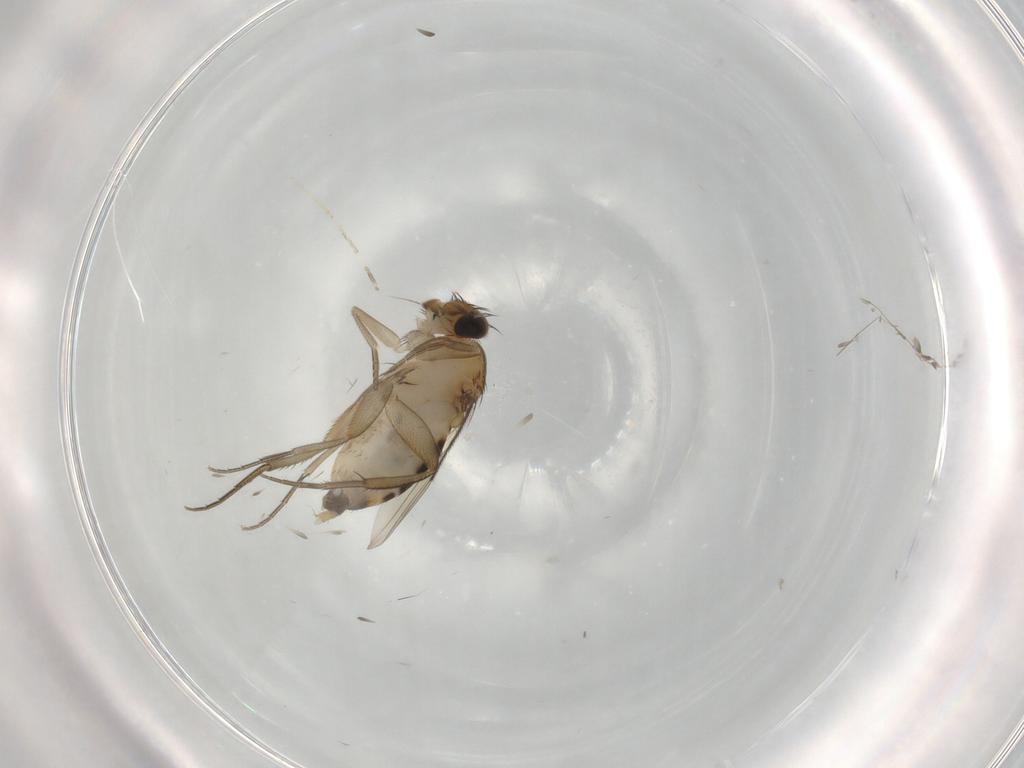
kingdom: Animalia
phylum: Arthropoda
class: Insecta
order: Diptera
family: Phoridae
